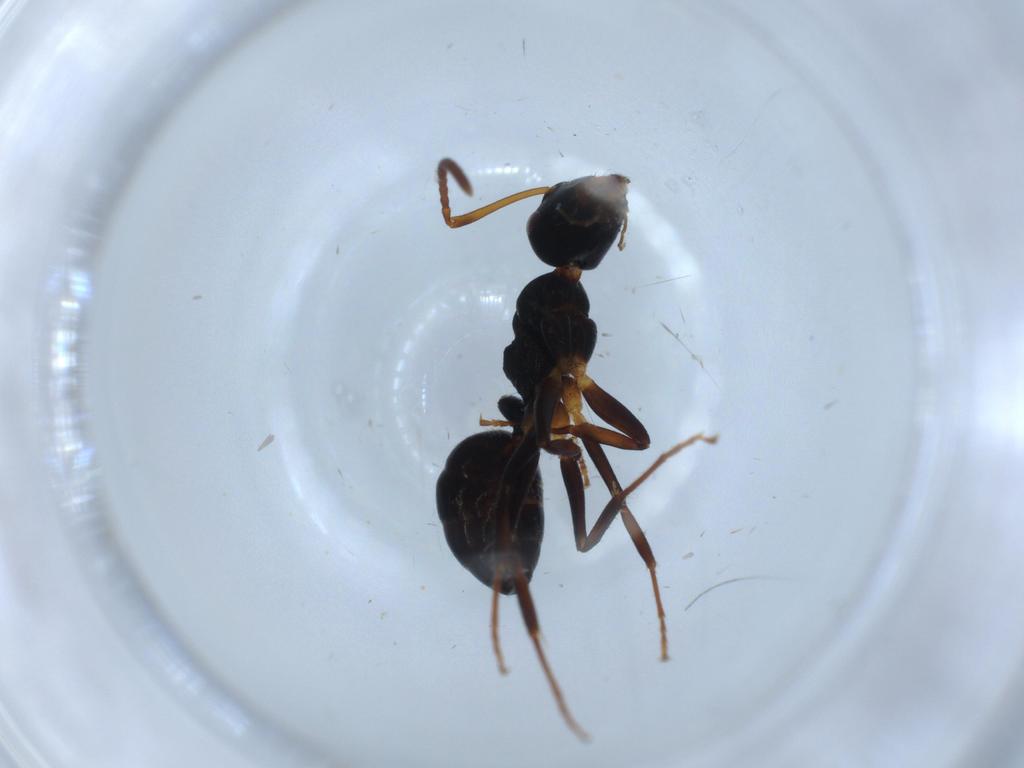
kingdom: Animalia
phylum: Arthropoda
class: Insecta
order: Hymenoptera
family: Formicidae
